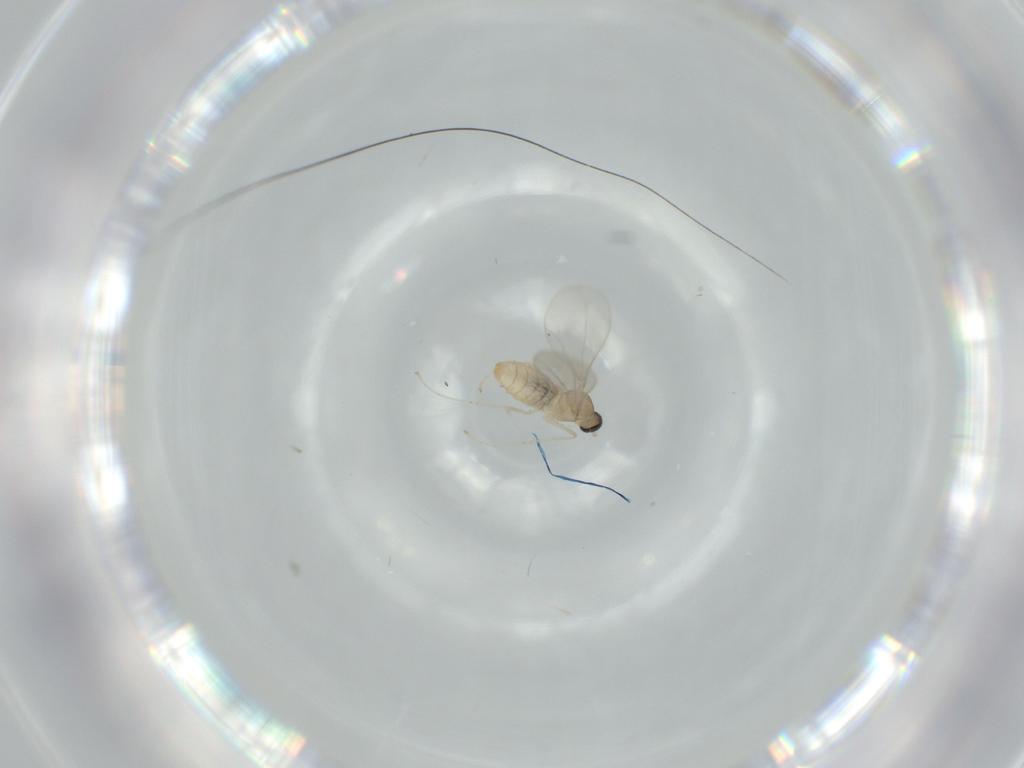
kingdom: Animalia
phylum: Arthropoda
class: Insecta
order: Diptera
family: Cecidomyiidae
